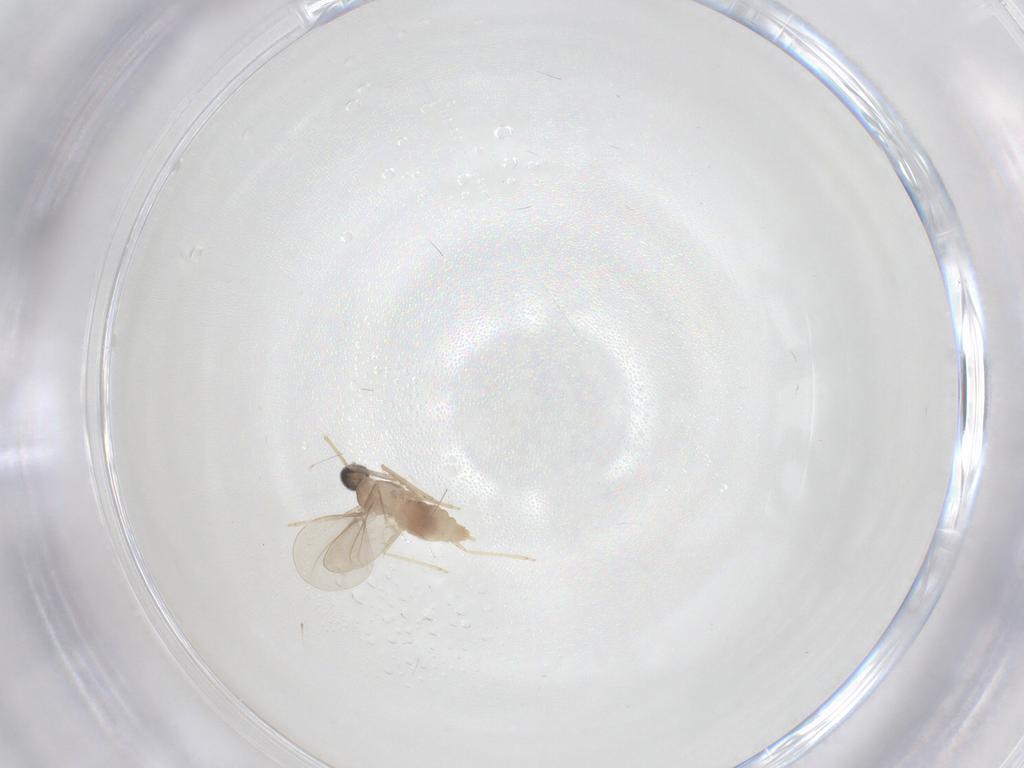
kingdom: Animalia
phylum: Arthropoda
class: Insecta
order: Diptera
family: Cecidomyiidae
